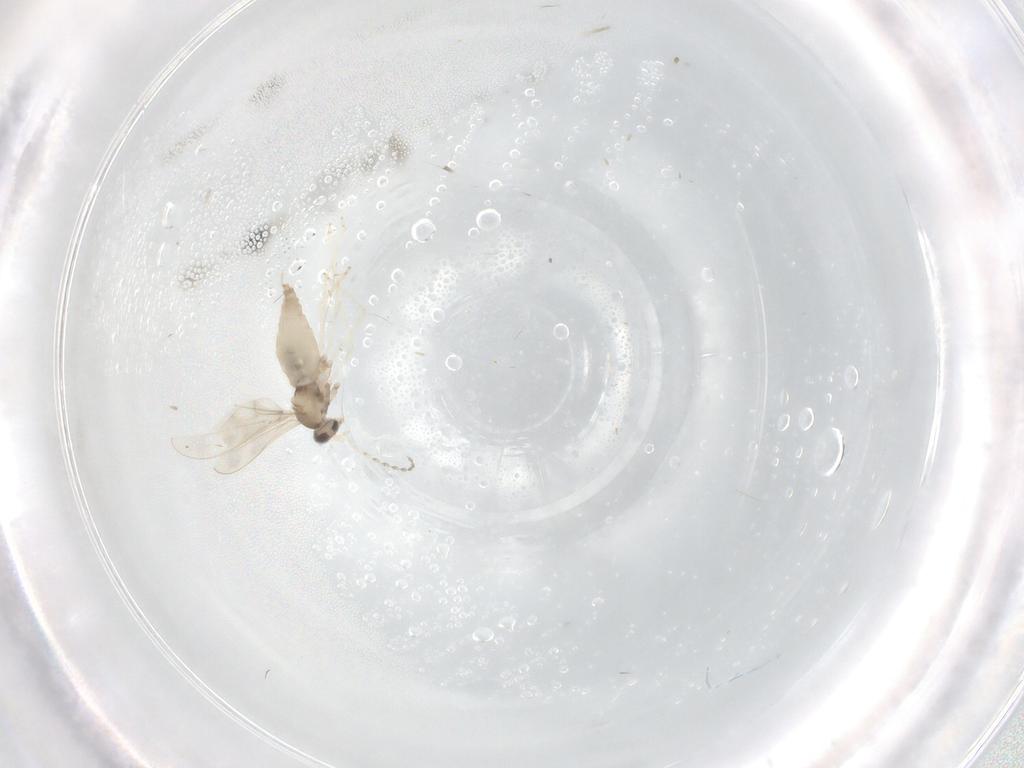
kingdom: Animalia
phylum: Arthropoda
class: Insecta
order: Diptera
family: Cecidomyiidae
